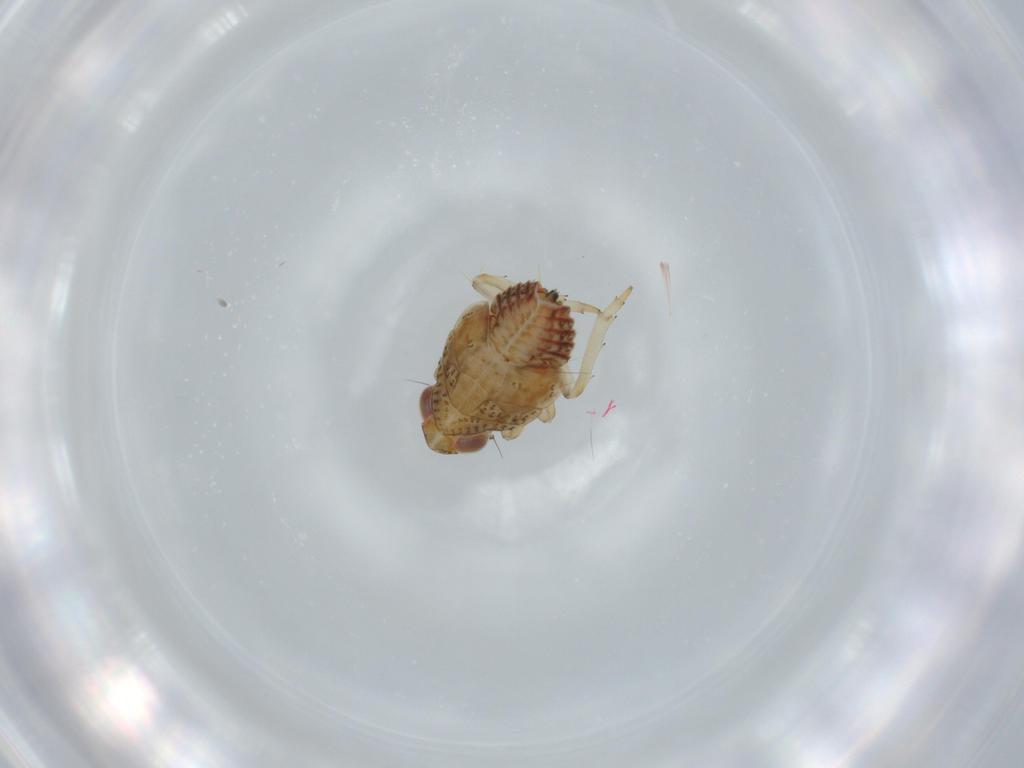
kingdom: Animalia
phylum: Arthropoda
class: Insecta
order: Hemiptera
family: Issidae
